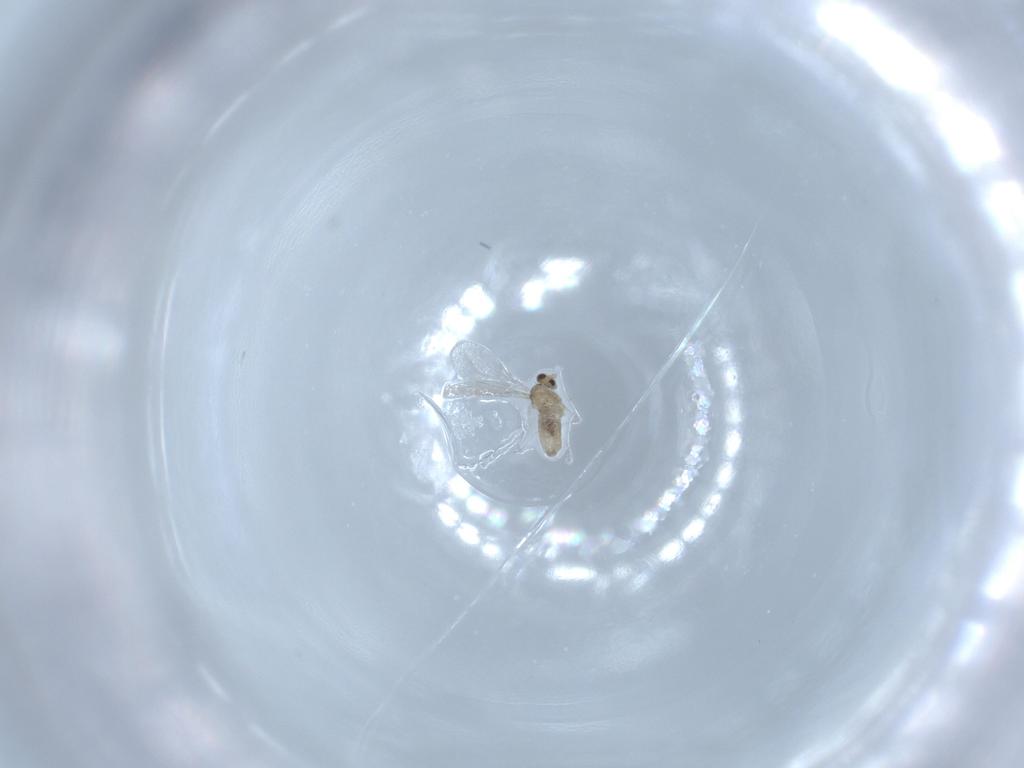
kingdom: Animalia
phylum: Arthropoda
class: Insecta
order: Diptera
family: Cecidomyiidae
